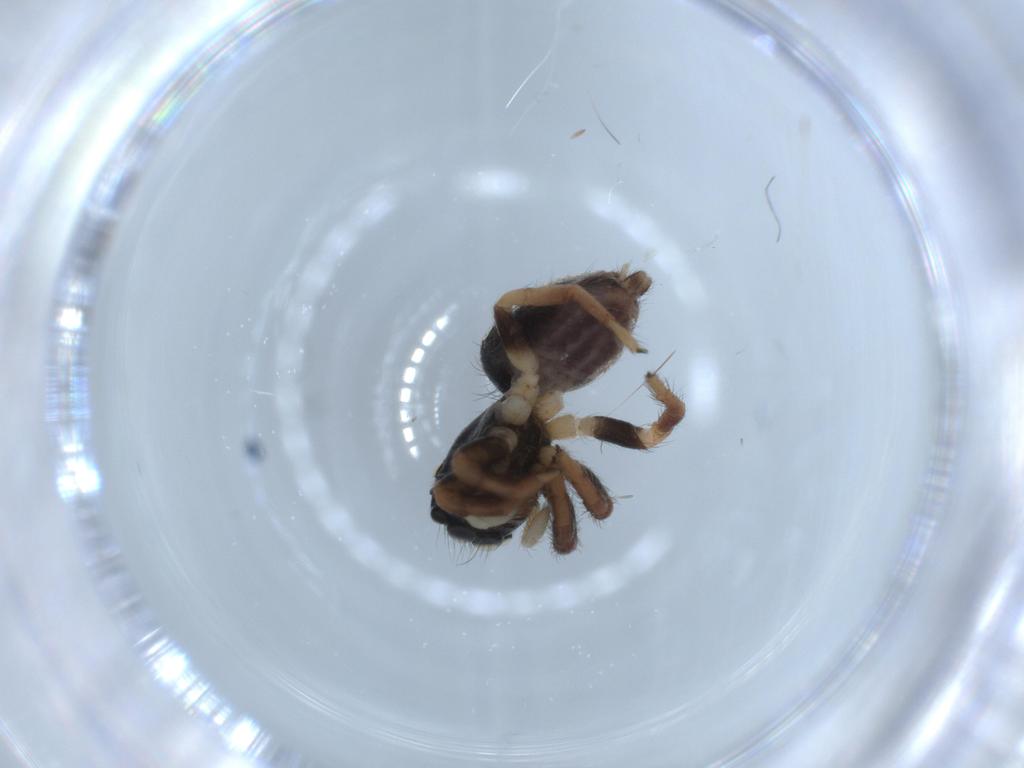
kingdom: Animalia
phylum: Arthropoda
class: Arachnida
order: Araneae
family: Salticidae
